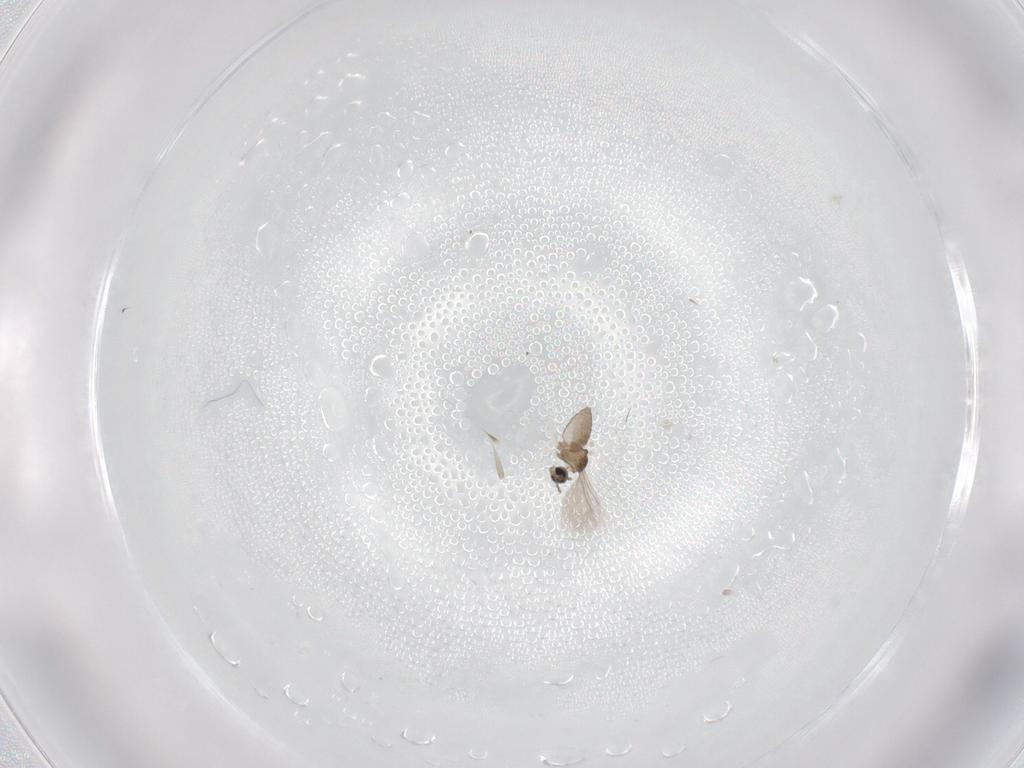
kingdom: Animalia
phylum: Arthropoda
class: Insecta
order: Diptera
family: Cecidomyiidae
